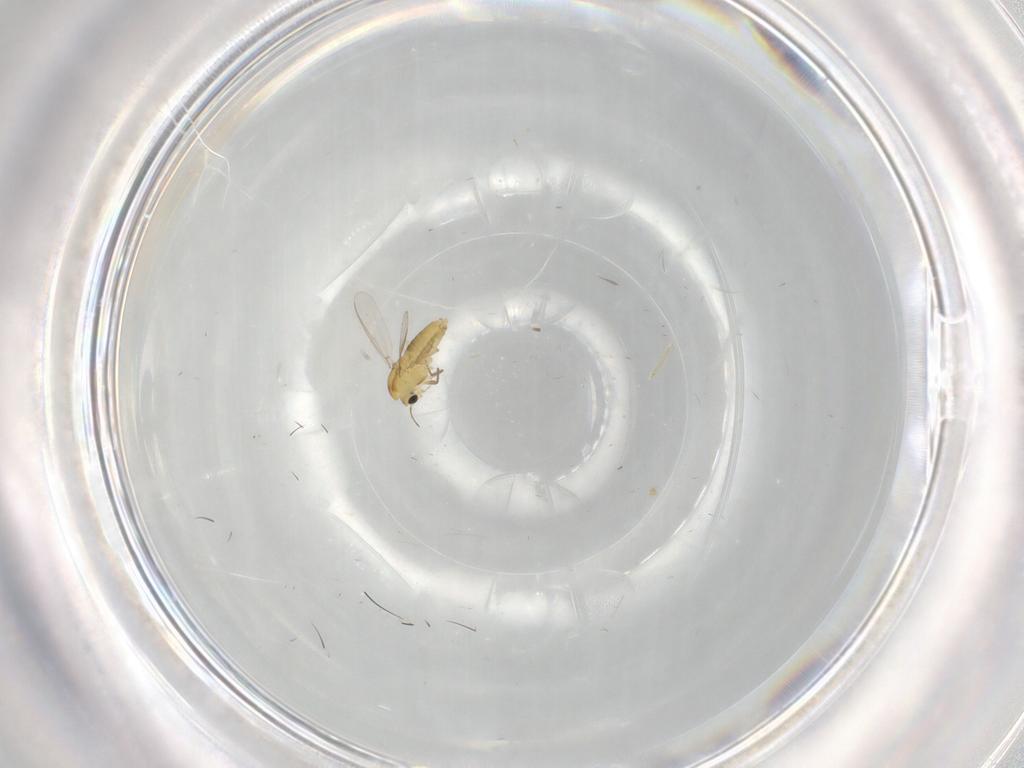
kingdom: Animalia
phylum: Arthropoda
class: Insecta
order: Diptera
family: Chironomidae
